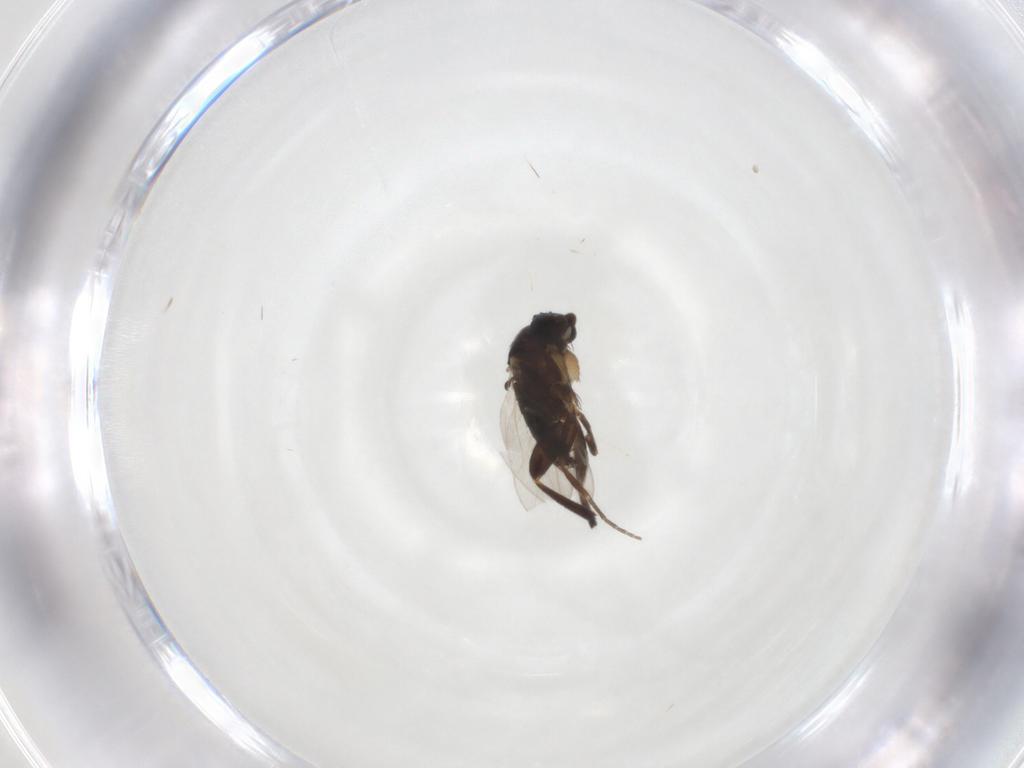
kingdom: Animalia
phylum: Arthropoda
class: Insecta
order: Diptera
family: Phoridae
